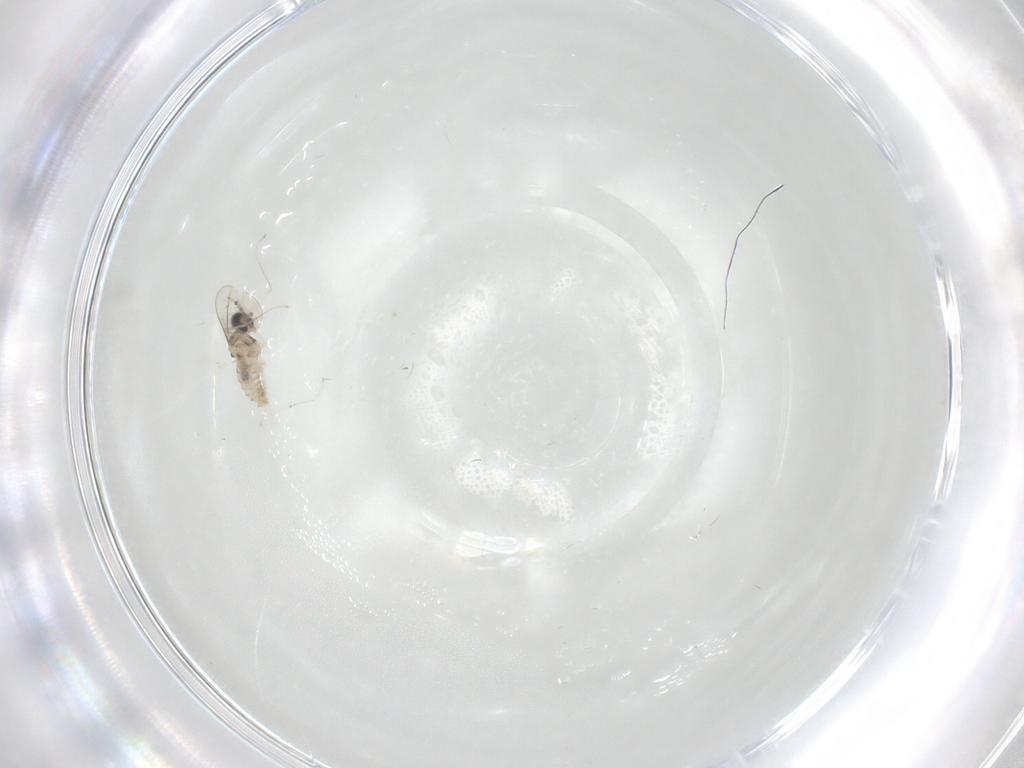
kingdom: Animalia
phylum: Arthropoda
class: Insecta
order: Diptera
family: Cecidomyiidae
